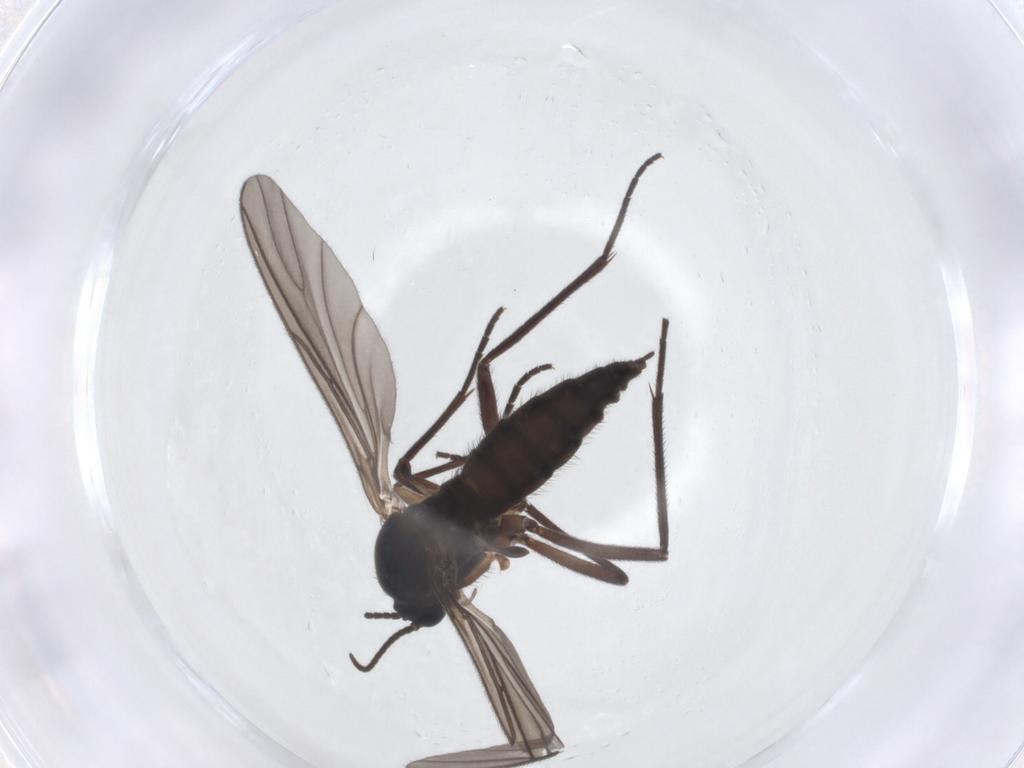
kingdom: Animalia
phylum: Arthropoda
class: Insecta
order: Diptera
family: Sciaridae
